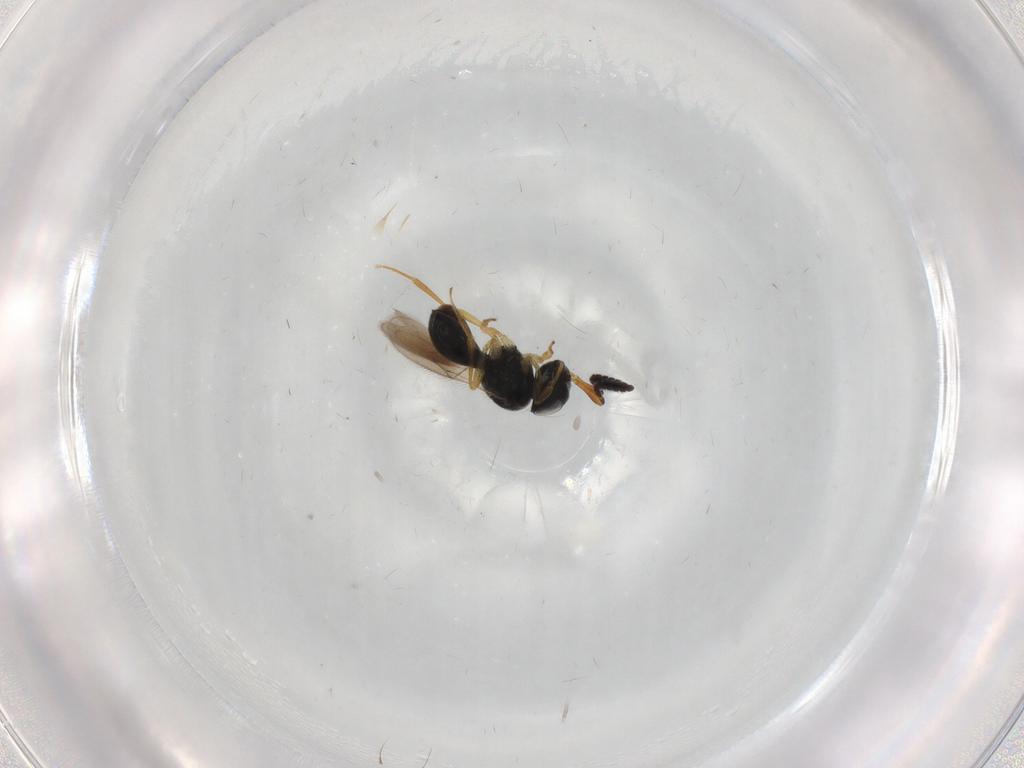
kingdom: Animalia
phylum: Arthropoda
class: Insecta
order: Hymenoptera
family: Scelionidae
